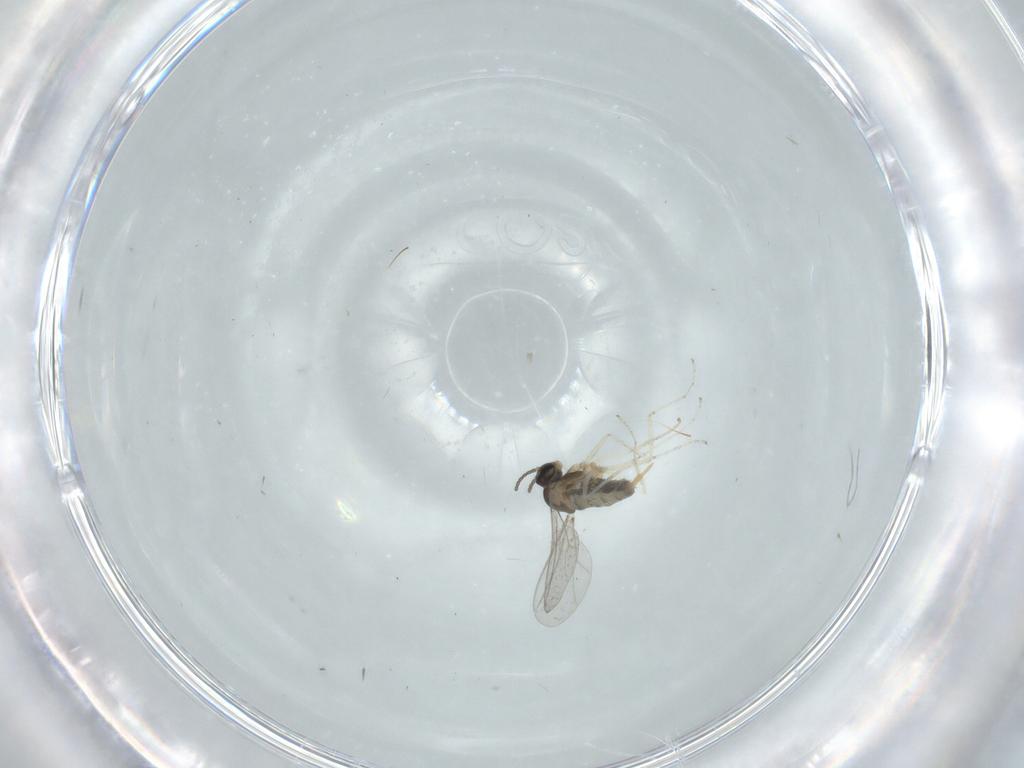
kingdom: Animalia
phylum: Arthropoda
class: Insecta
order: Diptera
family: Cecidomyiidae
